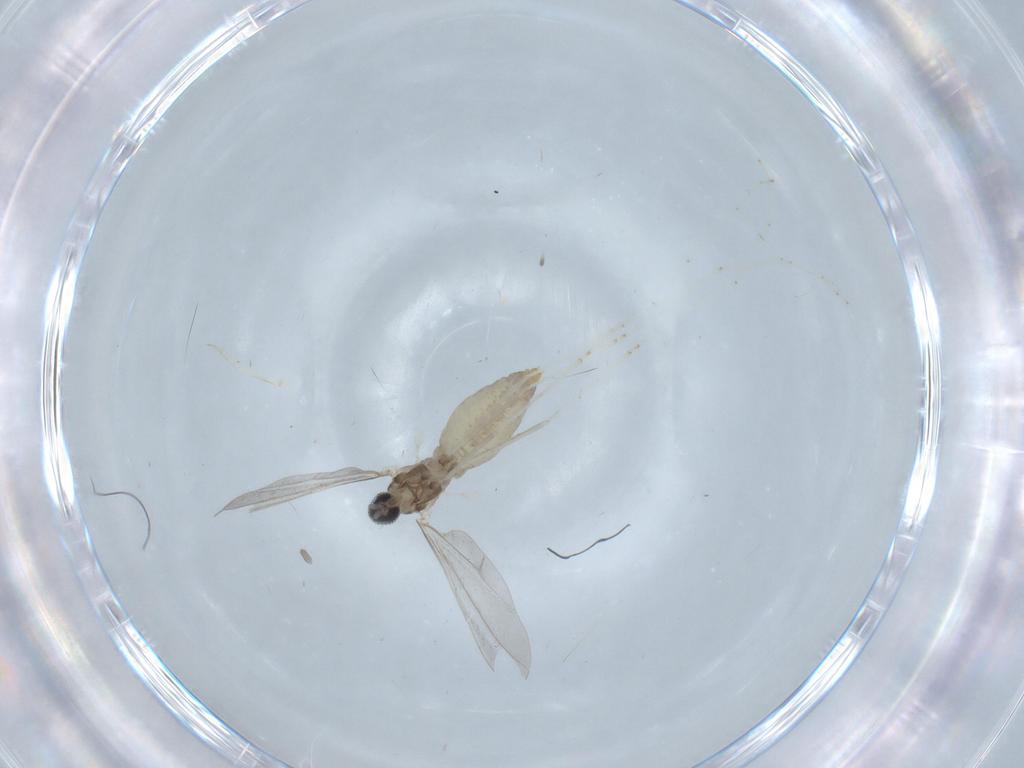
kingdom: Animalia
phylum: Arthropoda
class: Insecta
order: Diptera
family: Cecidomyiidae
